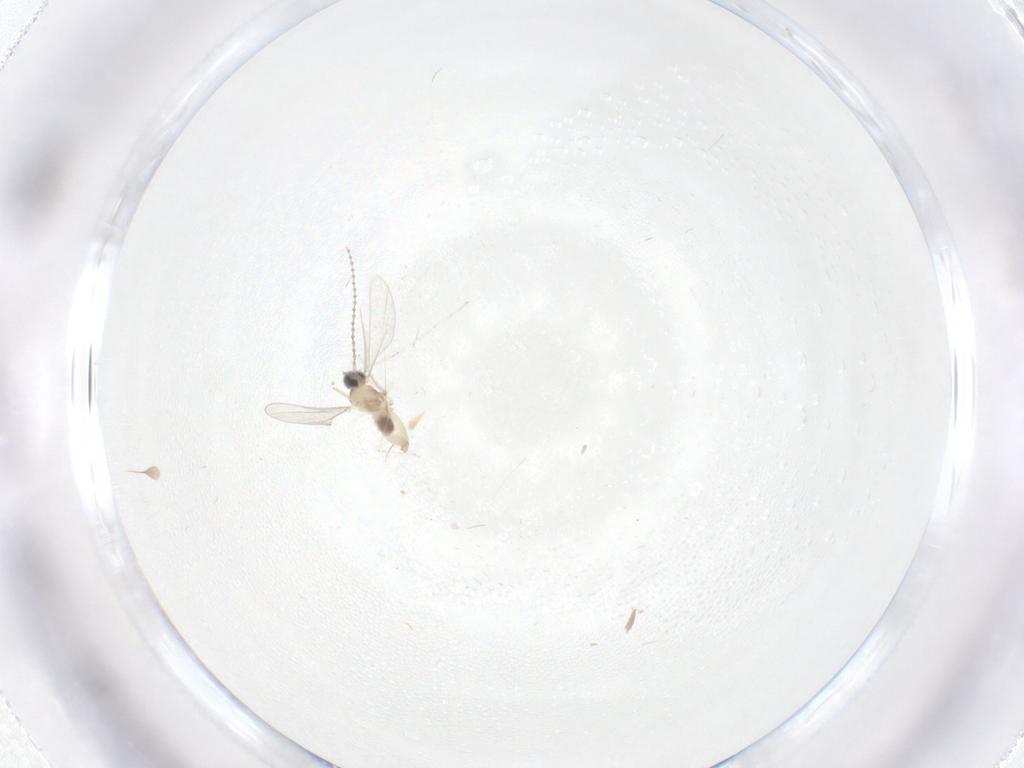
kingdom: Animalia
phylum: Arthropoda
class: Insecta
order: Diptera
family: Cecidomyiidae
